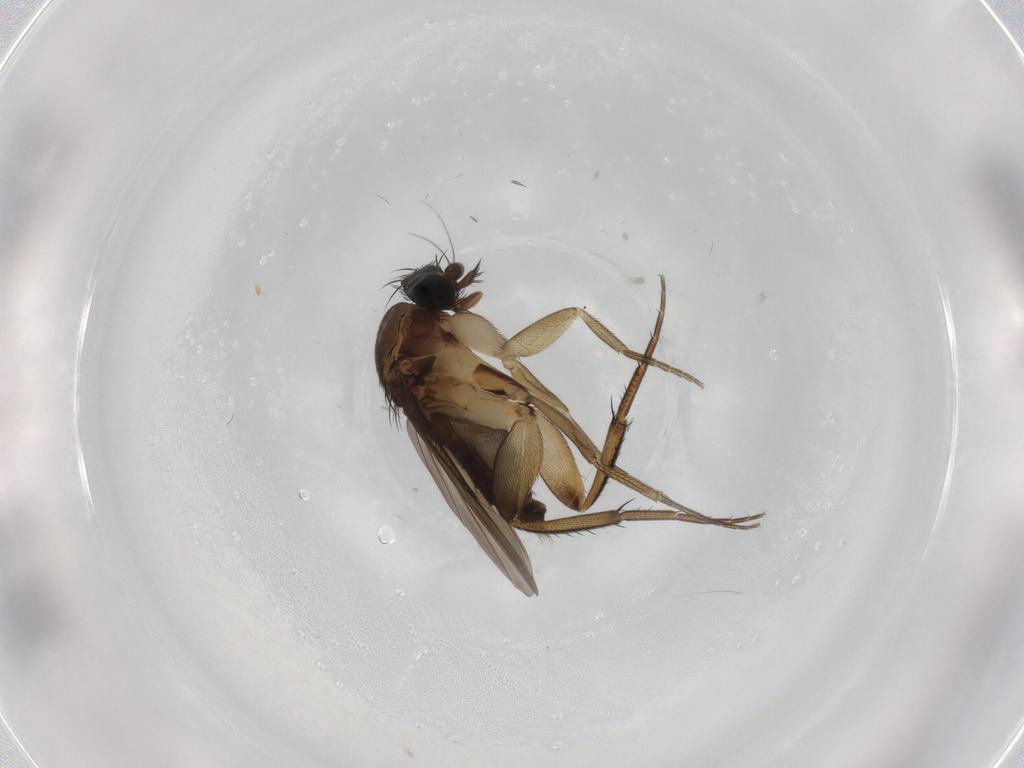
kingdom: Animalia
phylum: Arthropoda
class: Insecta
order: Diptera
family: Phoridae
